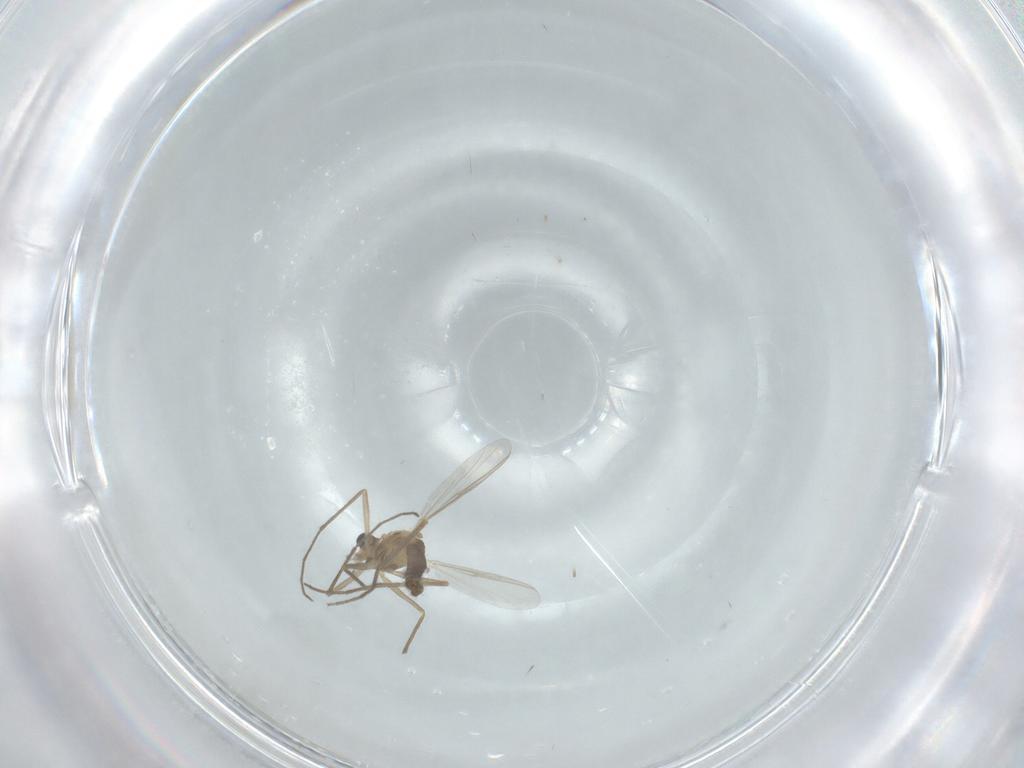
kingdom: Animalia
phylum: Arthropoda
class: Insecta
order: Diptera
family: Chironomidae
